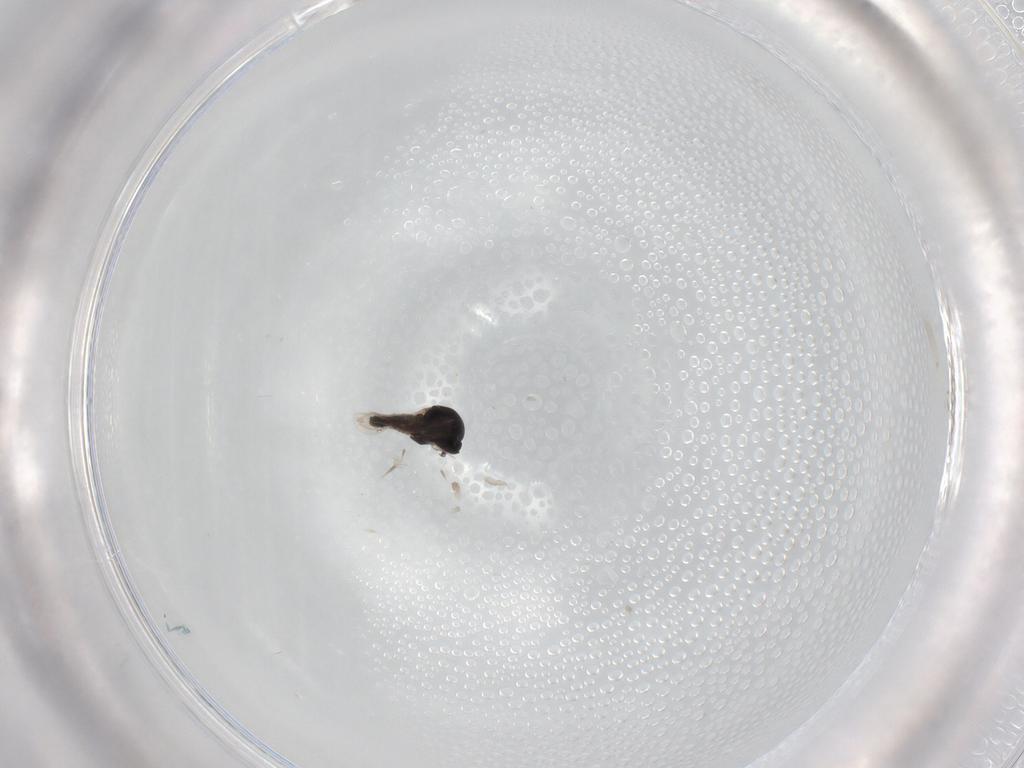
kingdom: Animalia
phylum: Arthropoda
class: Insecta
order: Diptera
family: Ceratopogonidae
